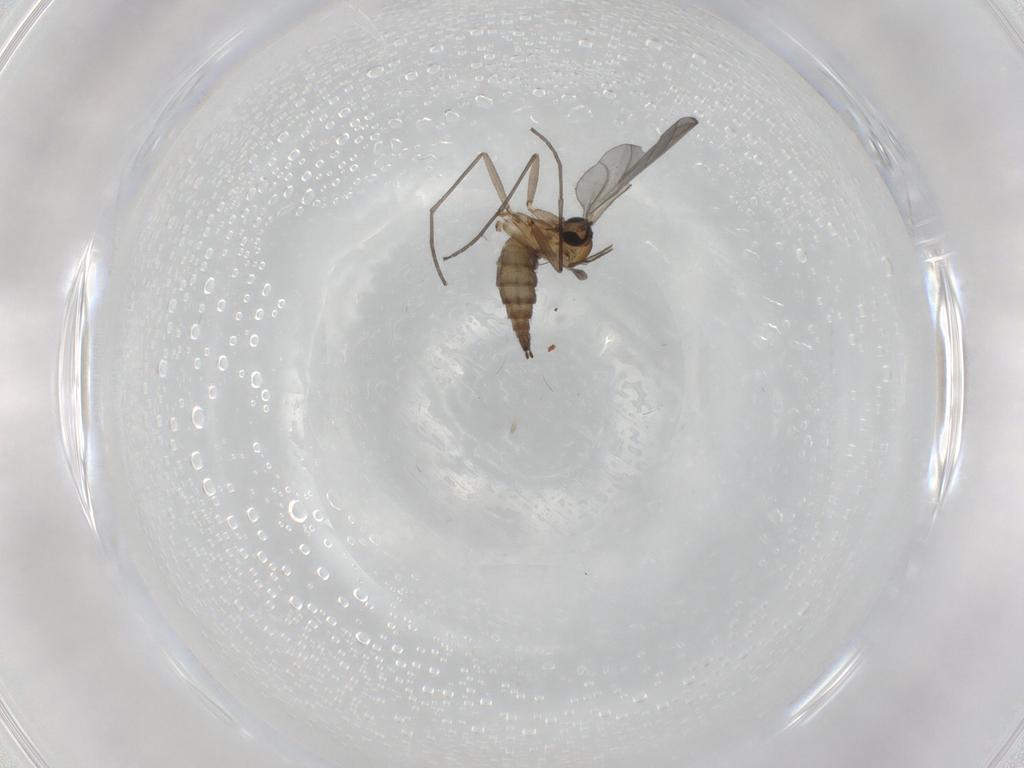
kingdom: Animalia
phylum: Arthropoda
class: Insecta
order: Diptera
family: Sciaridae
